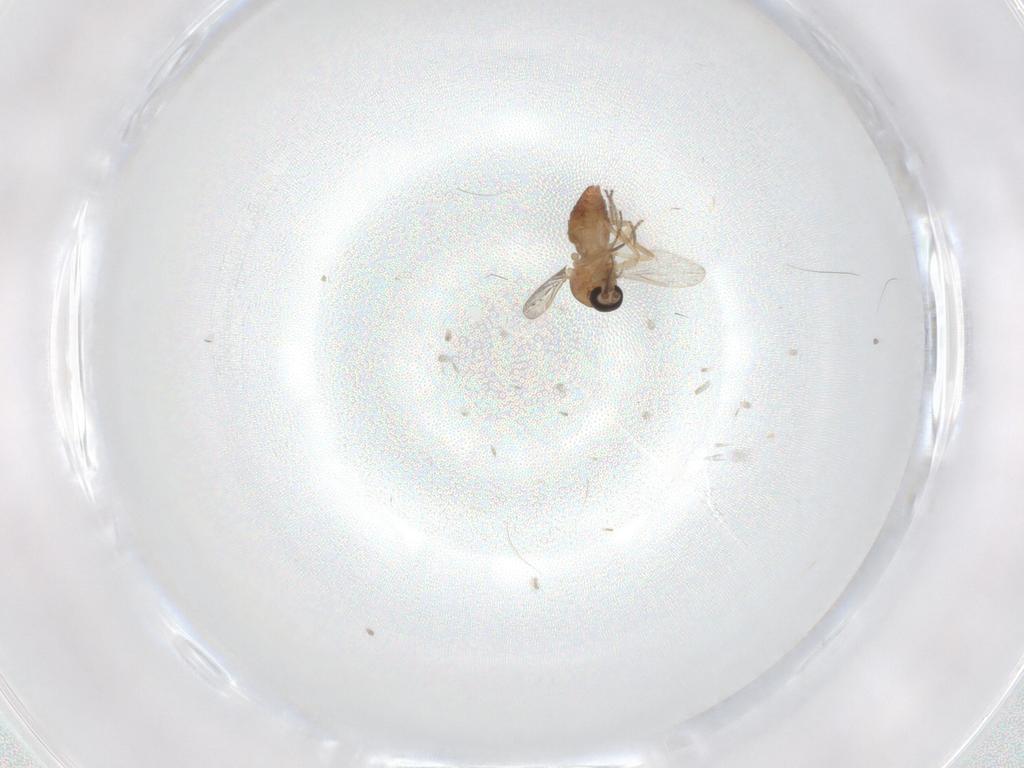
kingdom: Animalia
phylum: Arthropoda
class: Insecta
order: Diptera
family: Ceratopogonidae
